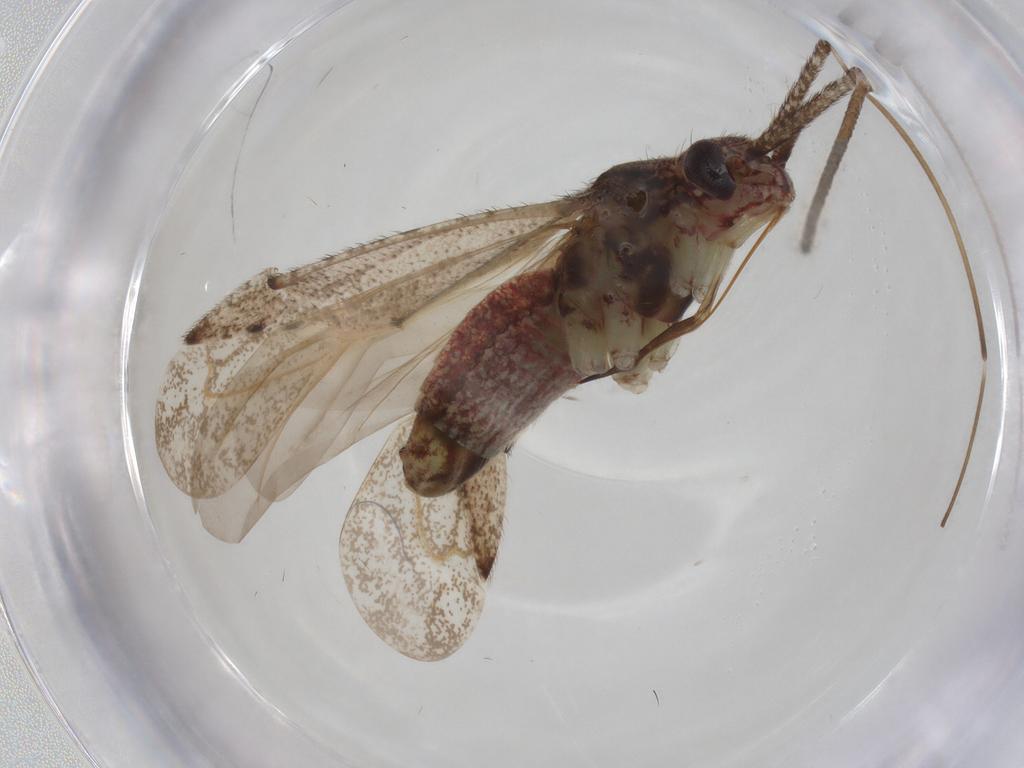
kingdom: Animalia
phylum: Arthropoda
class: Insecta
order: Hemiptera
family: Miridae
